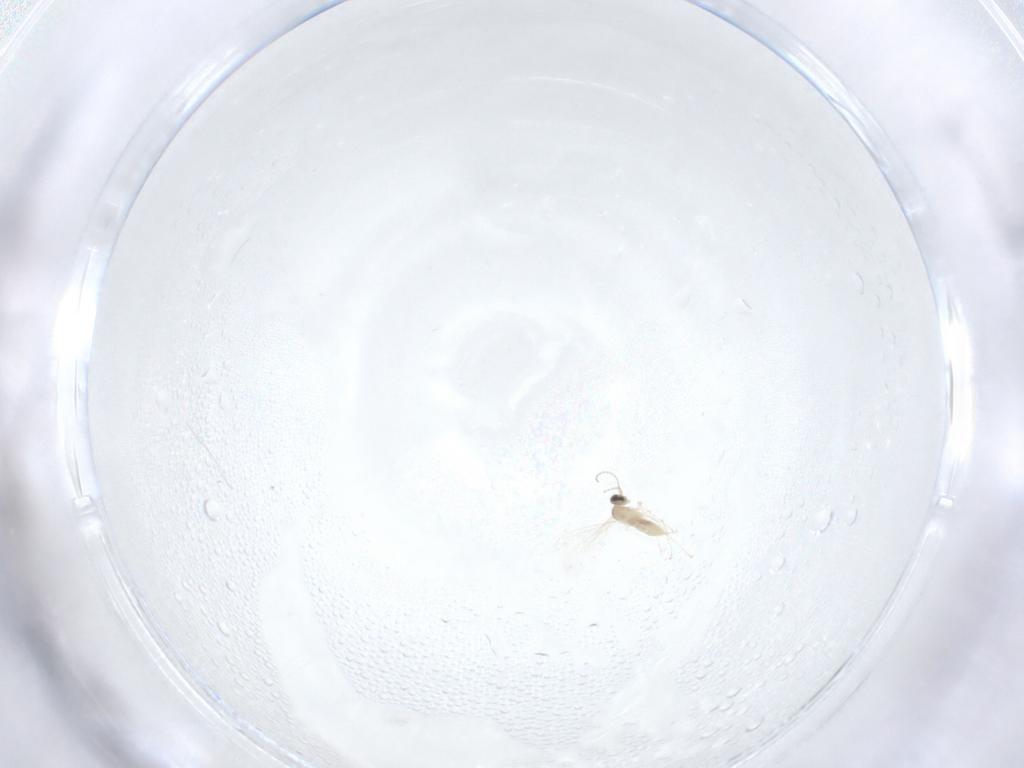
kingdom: Animalia
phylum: Arthropoda
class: Insecta
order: Diptera
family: Cecidomyiidae
